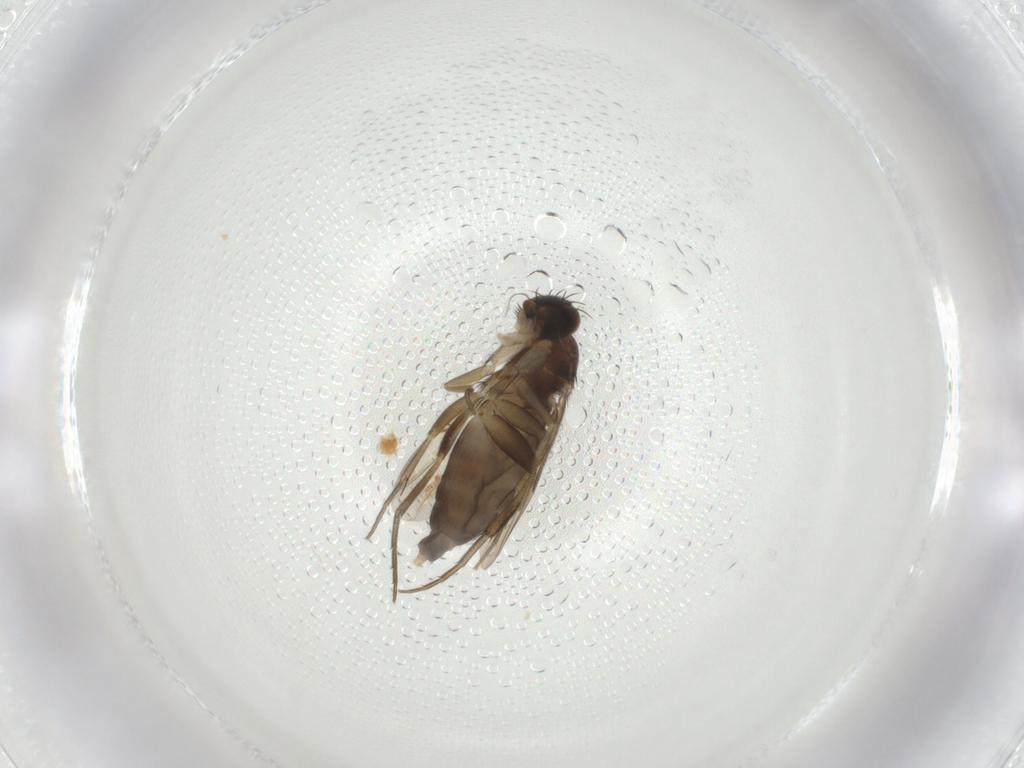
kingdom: Animalia
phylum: Arthropoda
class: Insecta
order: Diptera
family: Phoridae
